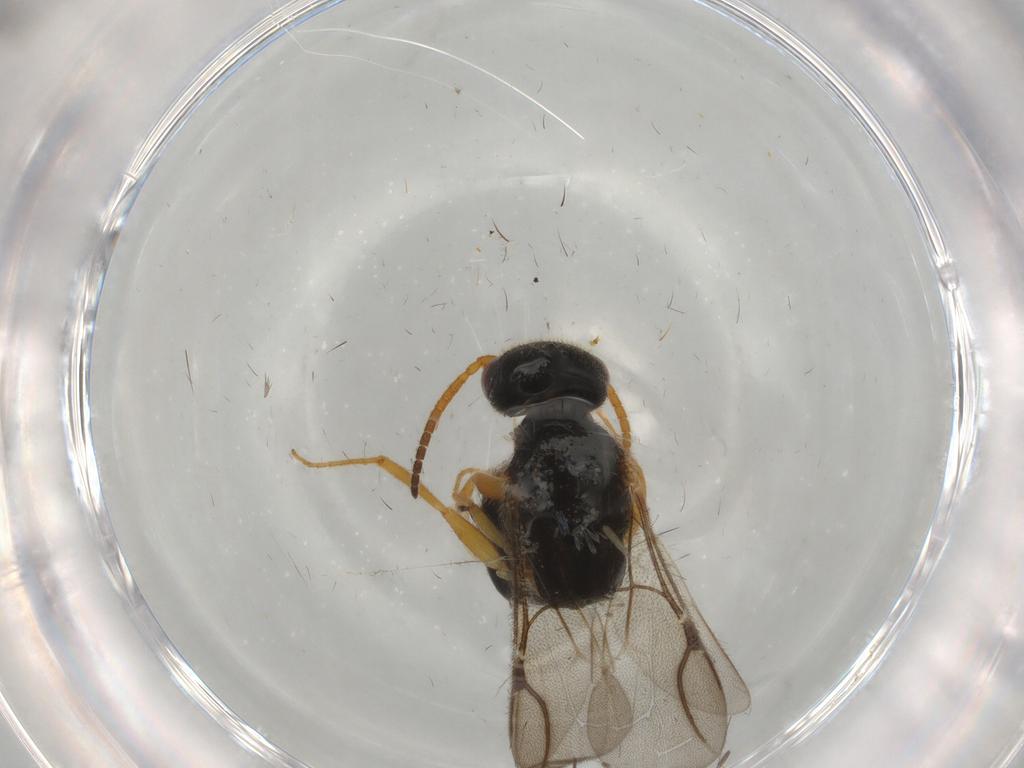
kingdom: Animalia
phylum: Arthropoda
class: Insecta
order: Hymenoptera
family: Bethylidae
